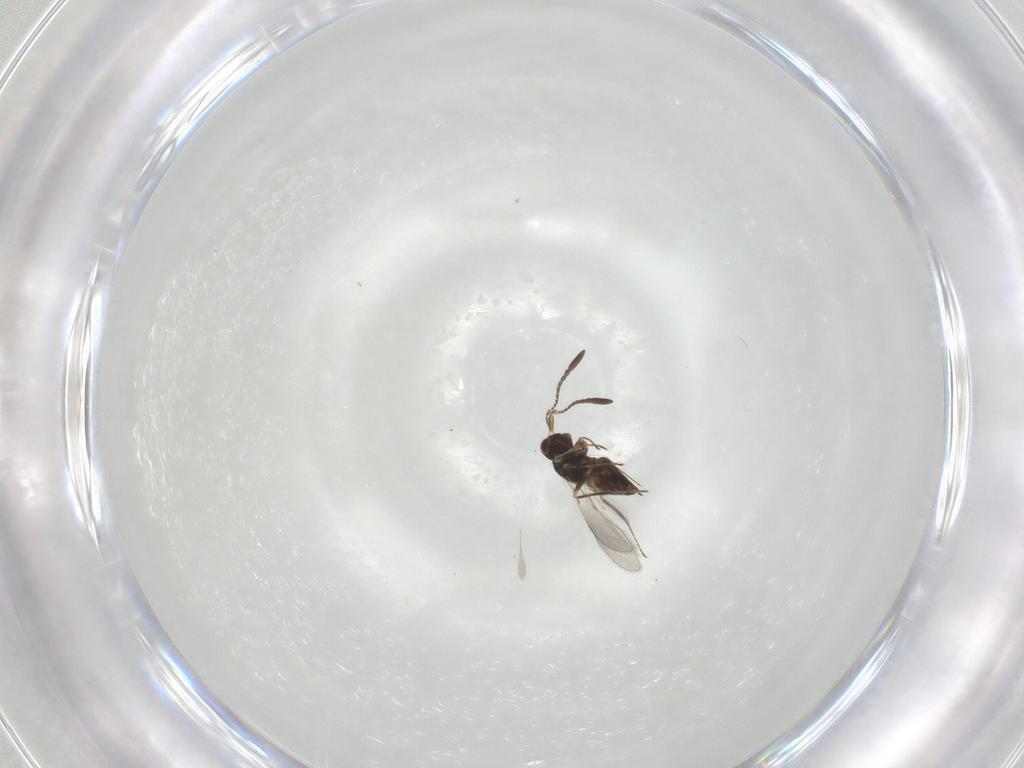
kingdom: Animalia
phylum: Arthropoda
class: Insecta
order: Hymenoptera
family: Mymaridae
